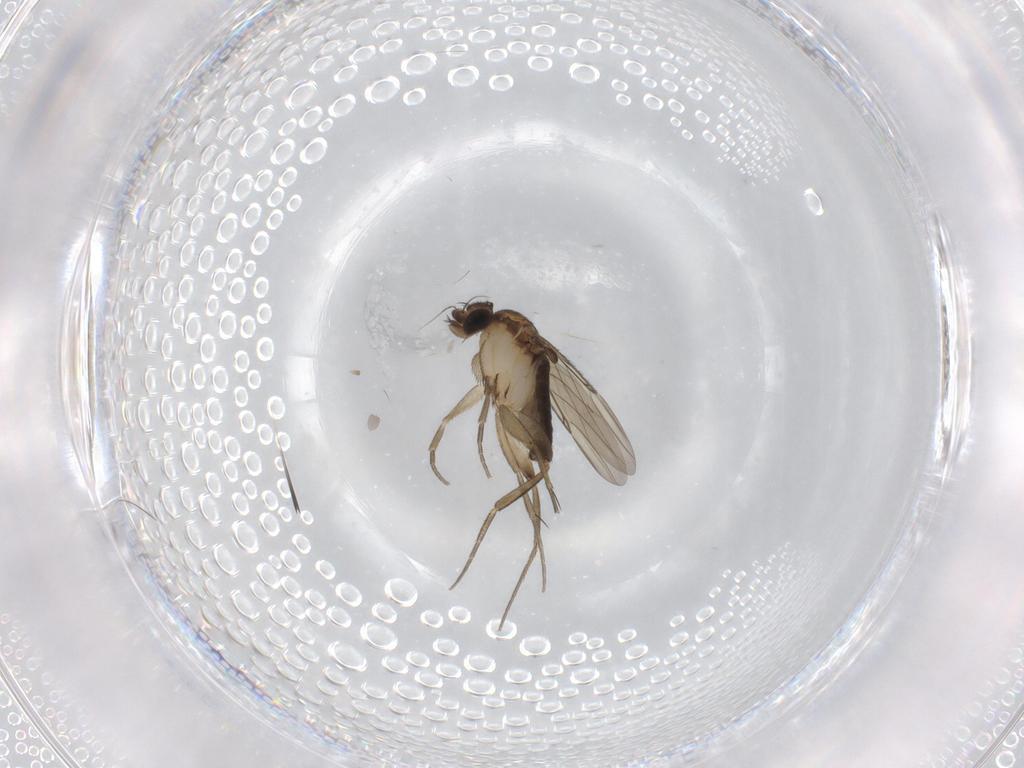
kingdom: Animalia
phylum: Arthropoda
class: Insecta
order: Diptera
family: Phoridae
